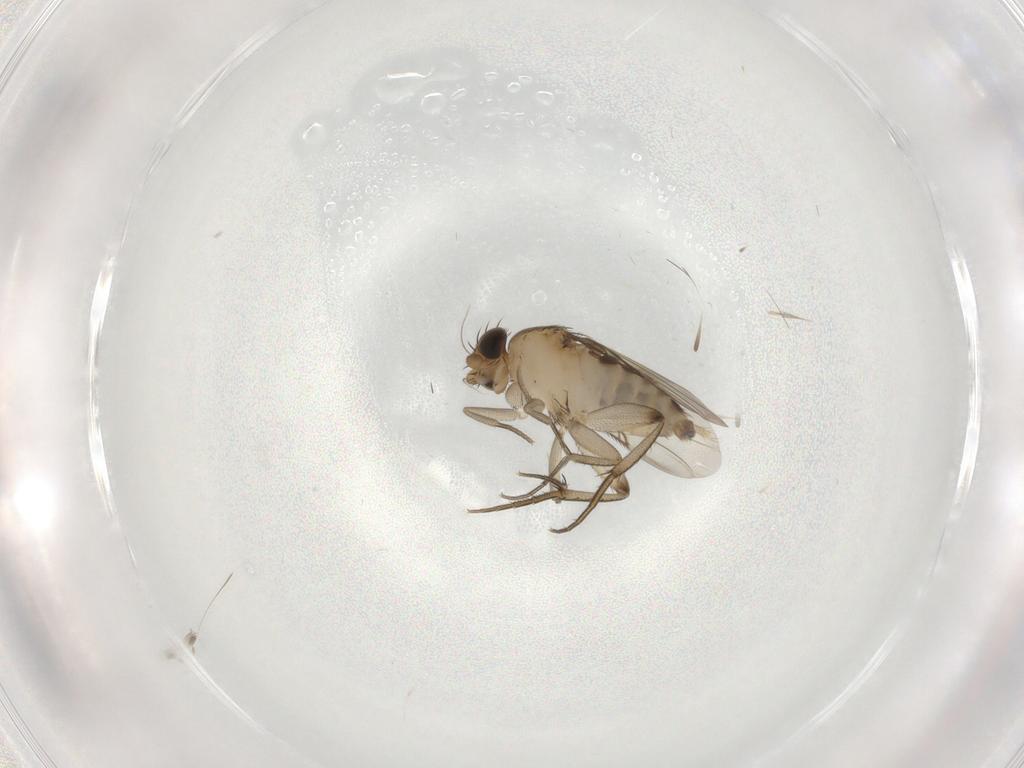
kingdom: Animalia
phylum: Arthropoda
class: Insecta
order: Diptera
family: Phoridae
